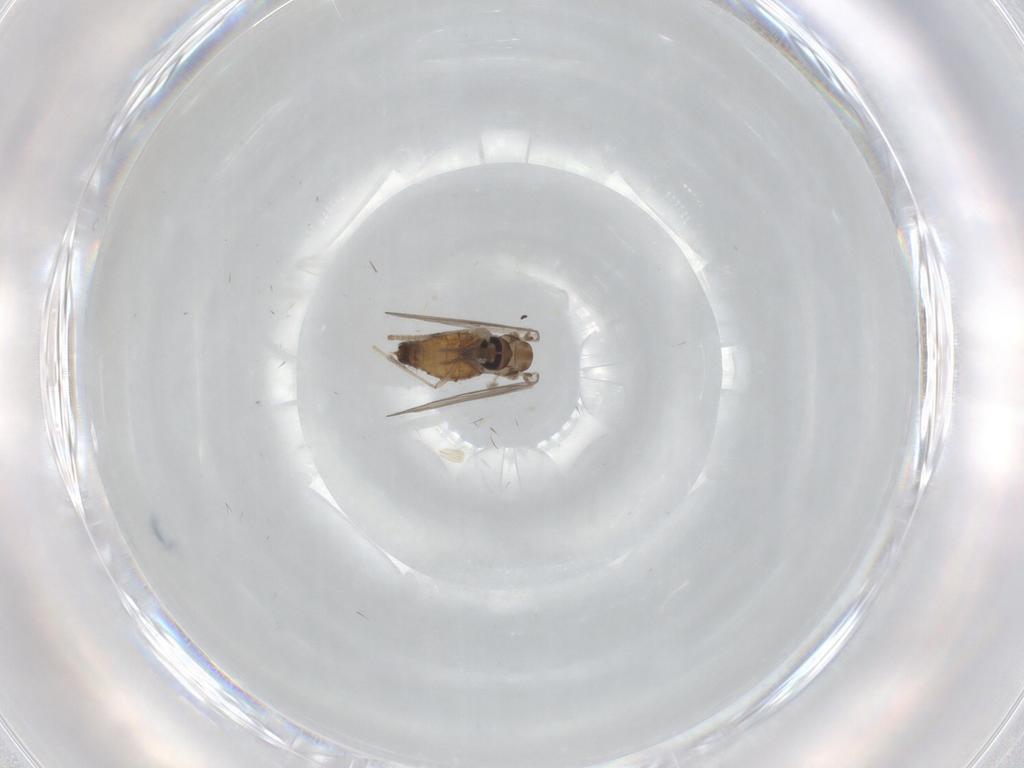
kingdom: Animalia
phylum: Arthropoda
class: Insecta
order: Diptera
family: Psychodidae
